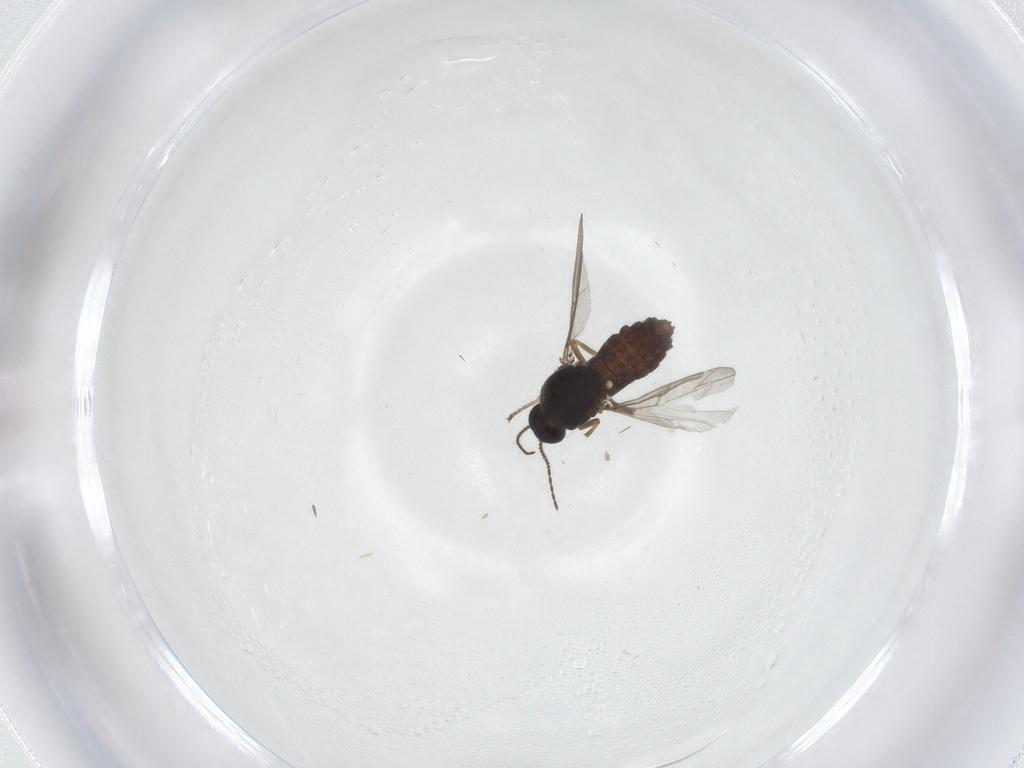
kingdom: Animalia
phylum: Arthropoda
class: Insecta
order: Diptera
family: Ceratopogonidae
